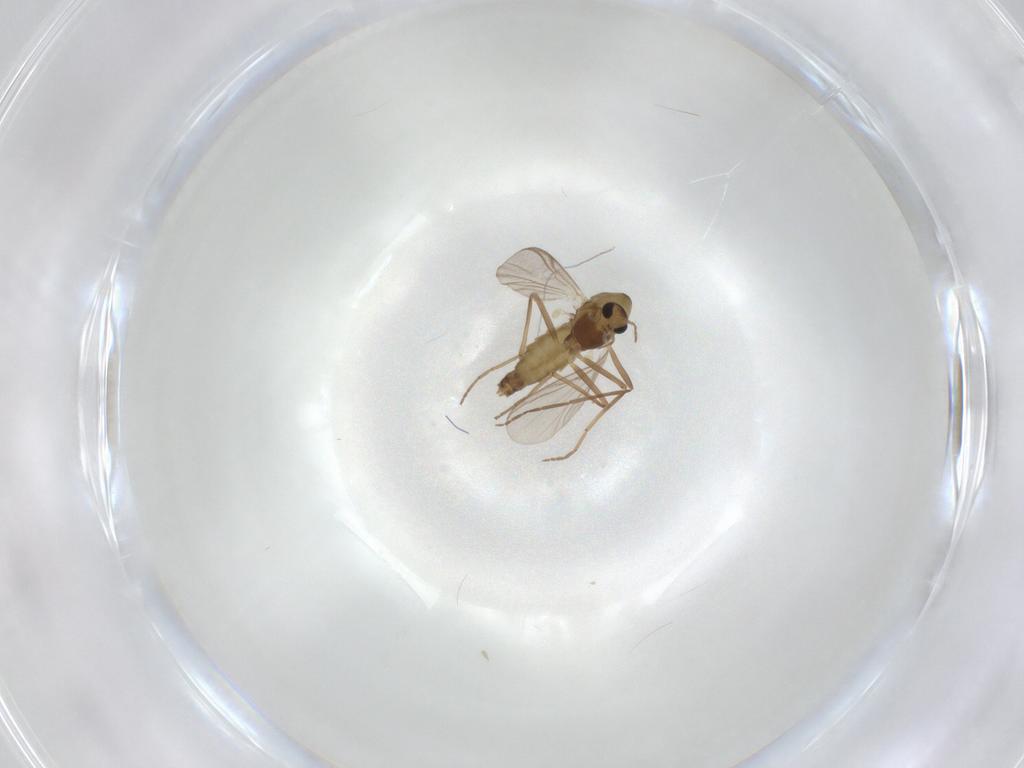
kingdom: Animalia
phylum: Arthropoda
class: Insecta
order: Diptera
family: Chironomidae
